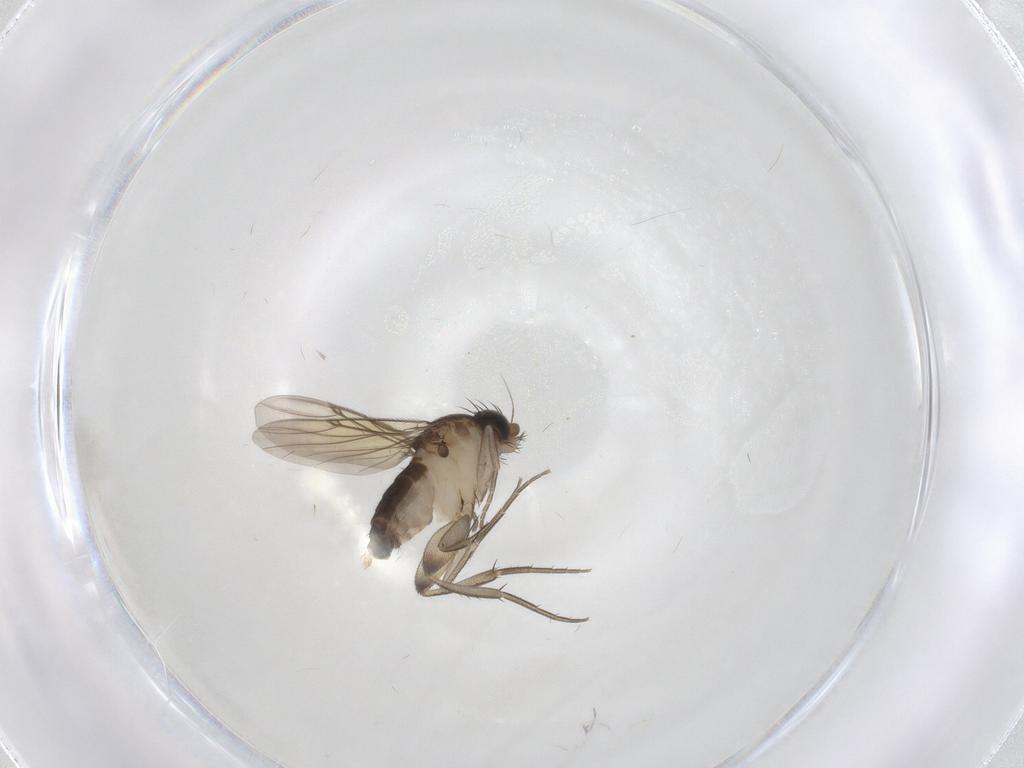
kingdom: Animalia
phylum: Arthropoda
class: Insecta
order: Diptera
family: Phoridae
